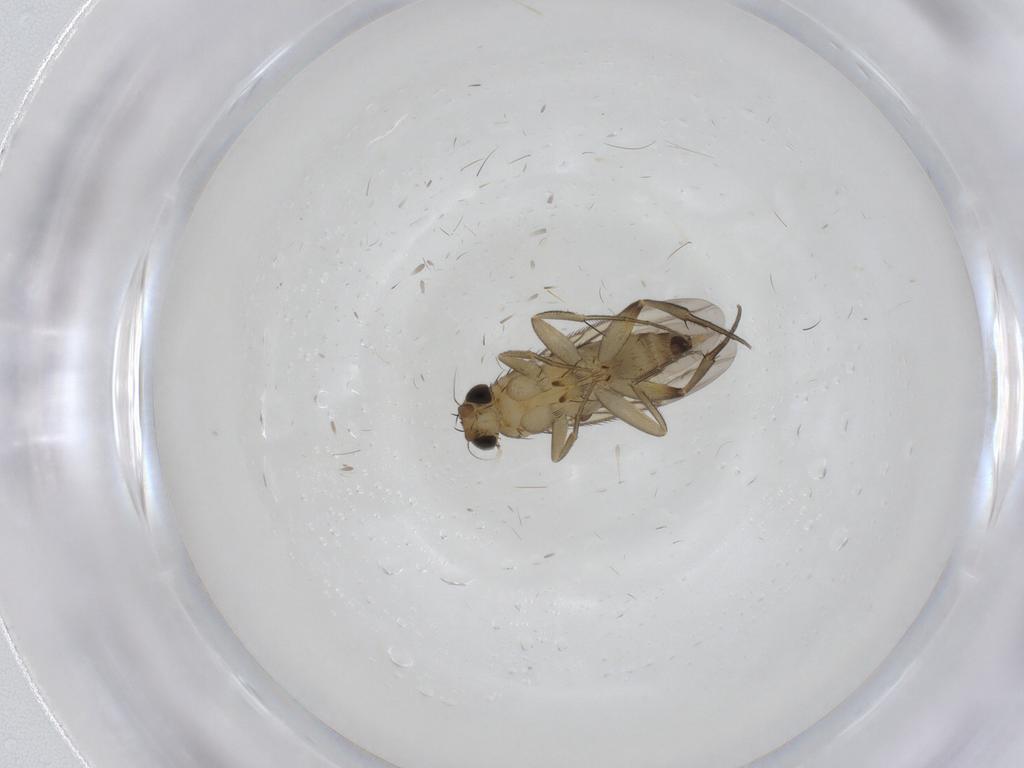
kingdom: Animalia
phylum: Arthropoda
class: Insecta
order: Diptera
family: Phoridae
